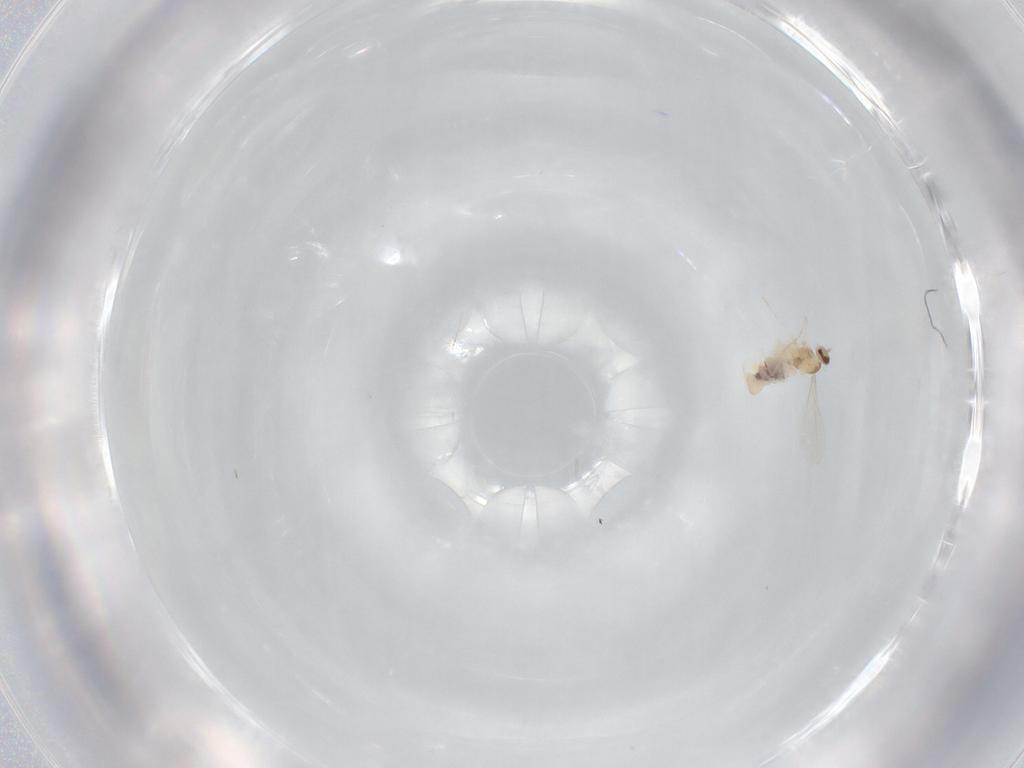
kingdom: Animalia
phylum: Arthropoda
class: Insecta
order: Diptera
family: Cecidomyiidae
